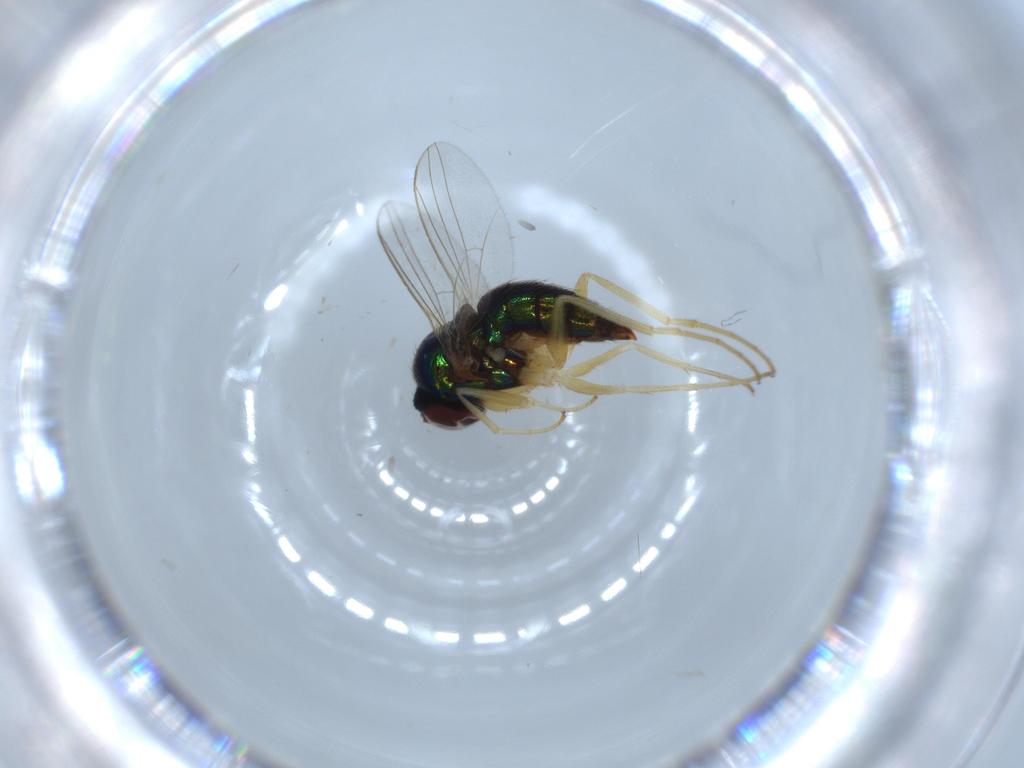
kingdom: Animalia
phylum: Arthropoda
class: Insecta
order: Diptera
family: Dolichopodidae
